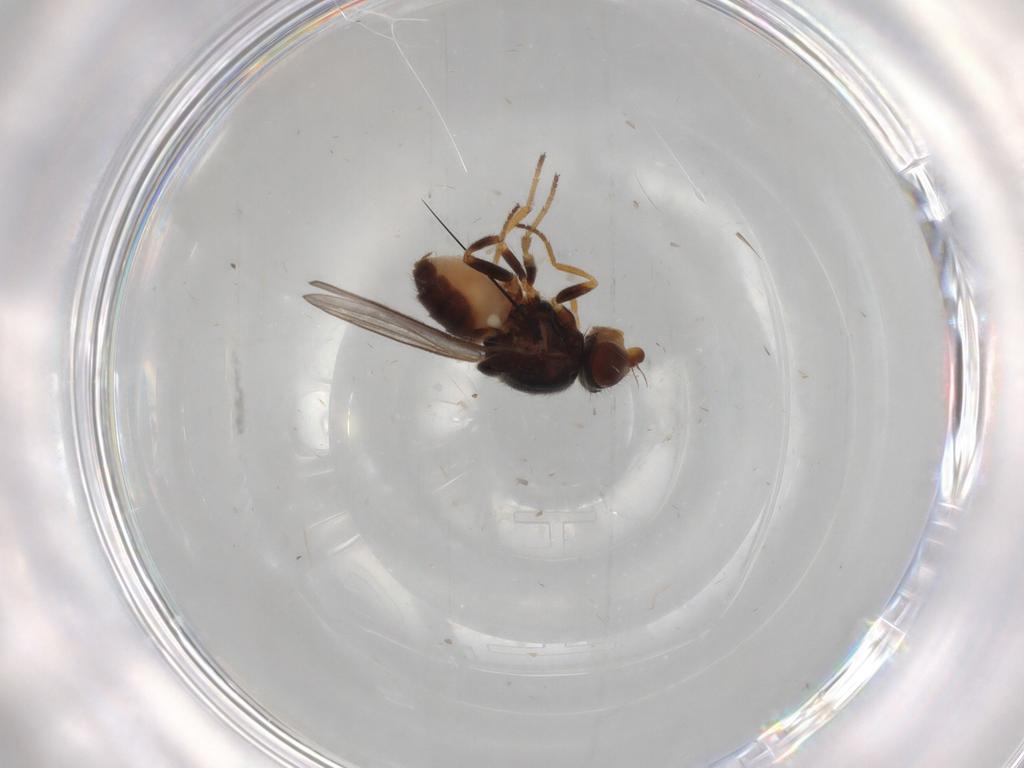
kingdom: Animalia
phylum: Arthropoda
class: Insecta
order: Diptera
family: Chloropidae
